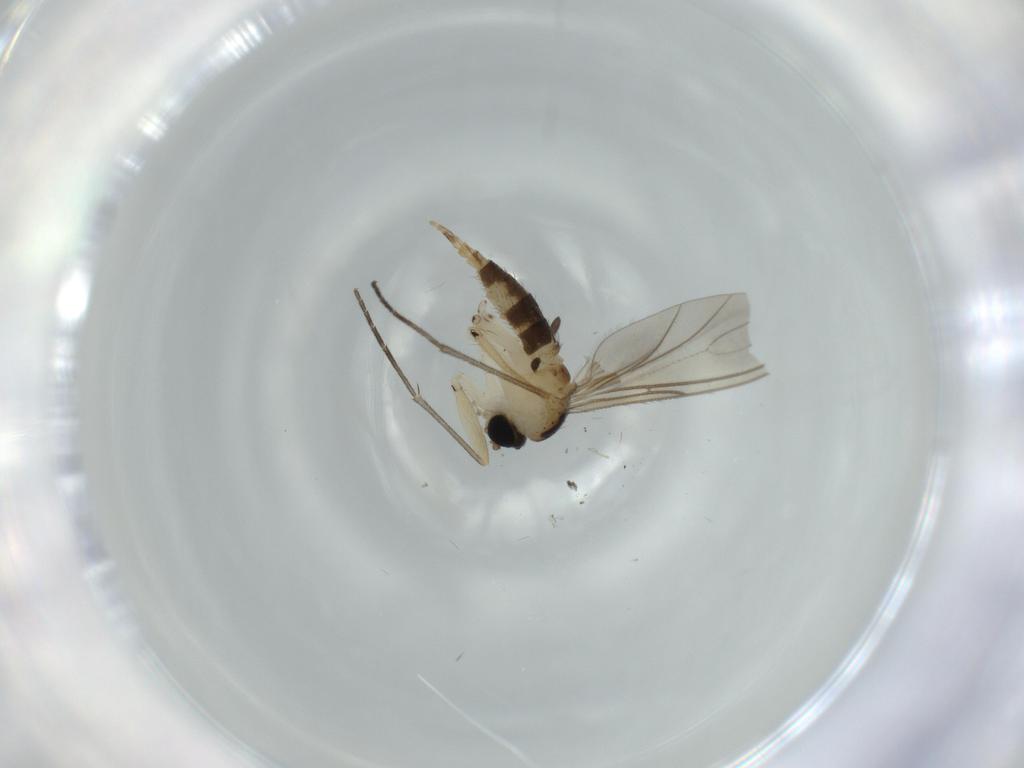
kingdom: Animalia
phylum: Arthropoda
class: Insecta
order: Diptera
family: Sciaridae
